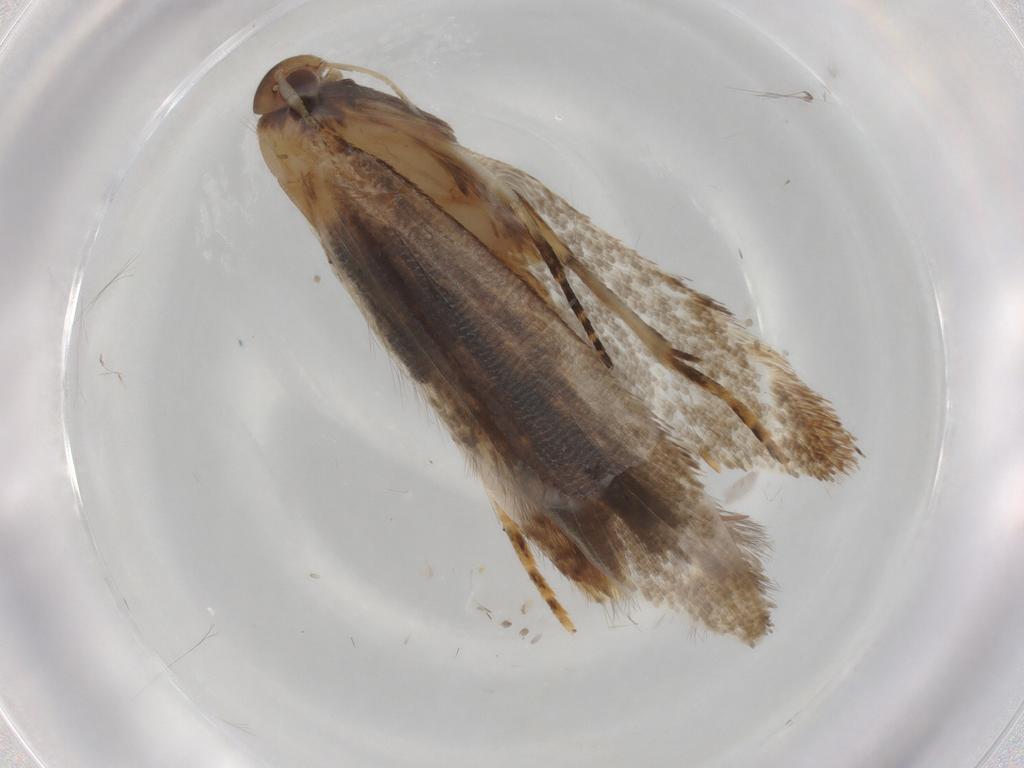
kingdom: Animalia
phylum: Arthropoda
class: Insecta
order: Lepidoptera
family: Gelechiidae
